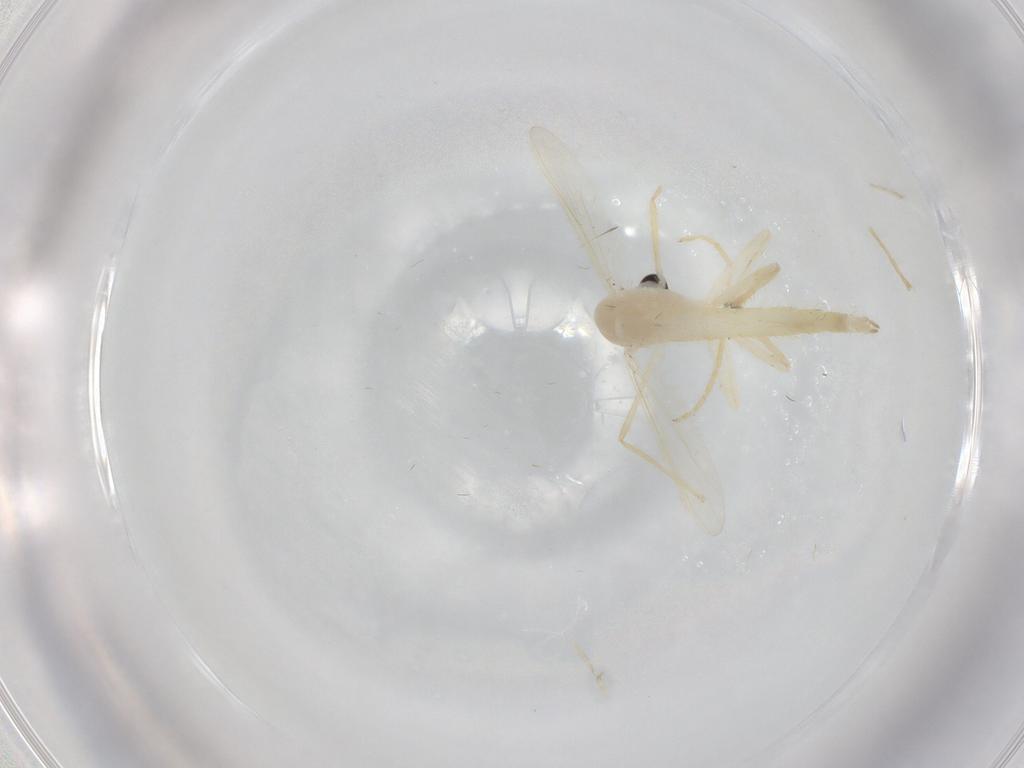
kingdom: Animalia
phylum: Arthropoda
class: Insecta
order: Diptera
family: Chironomidae
